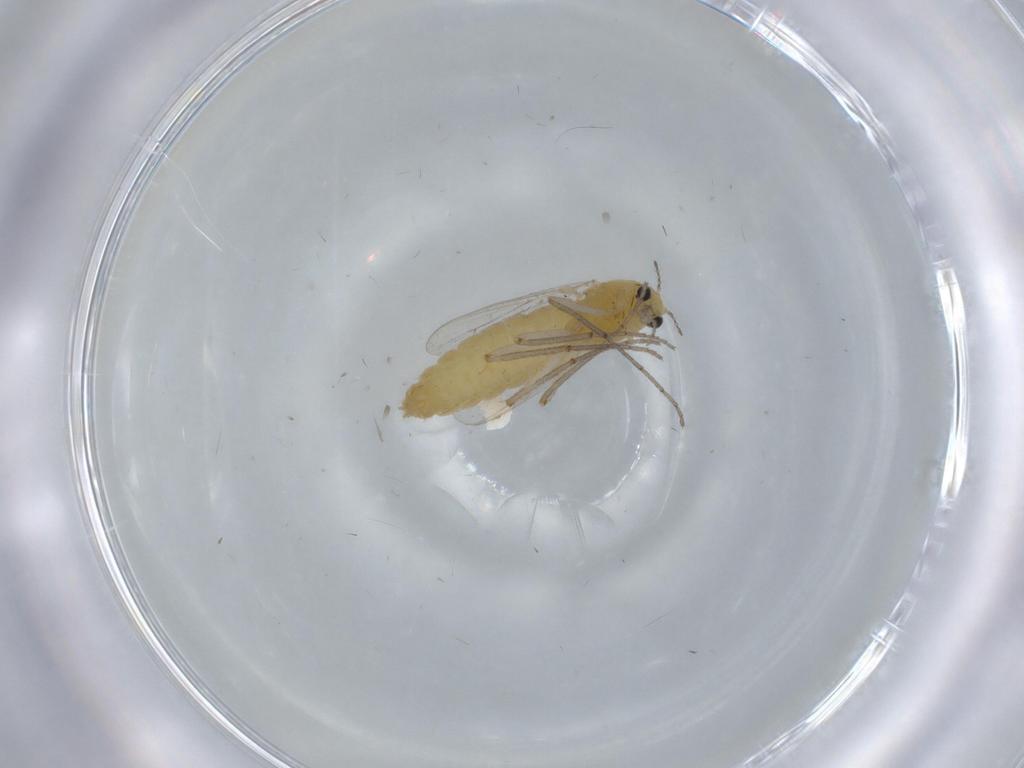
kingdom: Animalia
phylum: Arthropoda
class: Insecta
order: Diptera
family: Chironomidae
